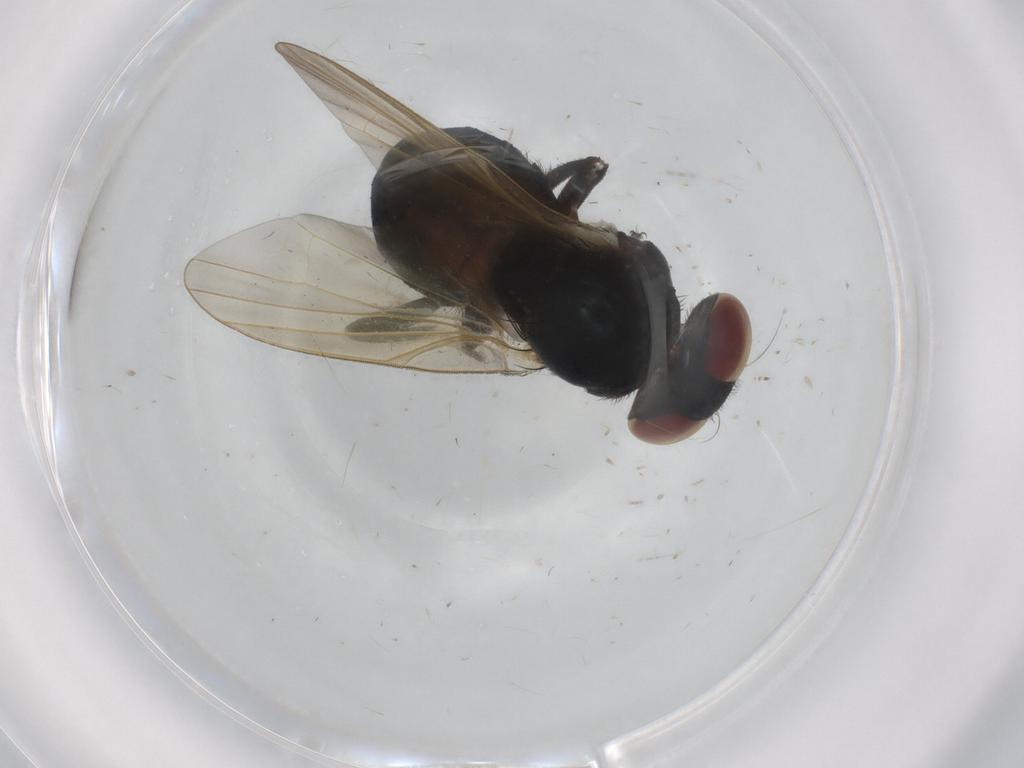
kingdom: Animalia
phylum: Arthropoda
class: Insecta
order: Diptera
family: Lonchaeidae
